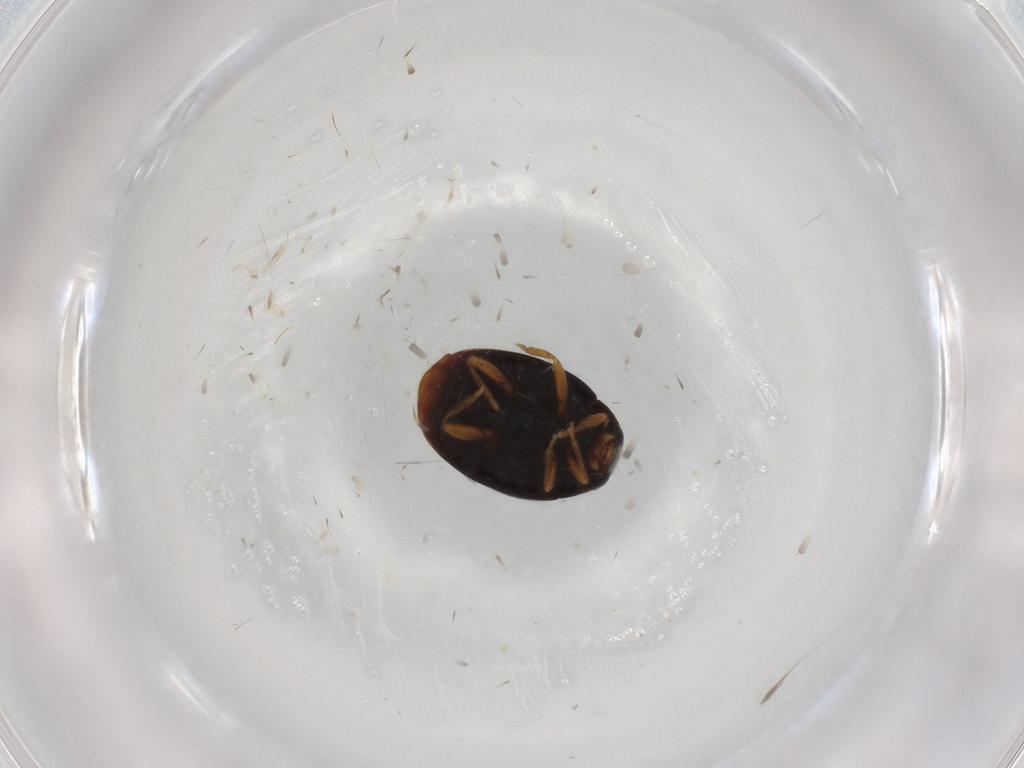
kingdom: Animalia
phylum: Arthropoda
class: Insecta
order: Coleoptera
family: Coccinellidae
